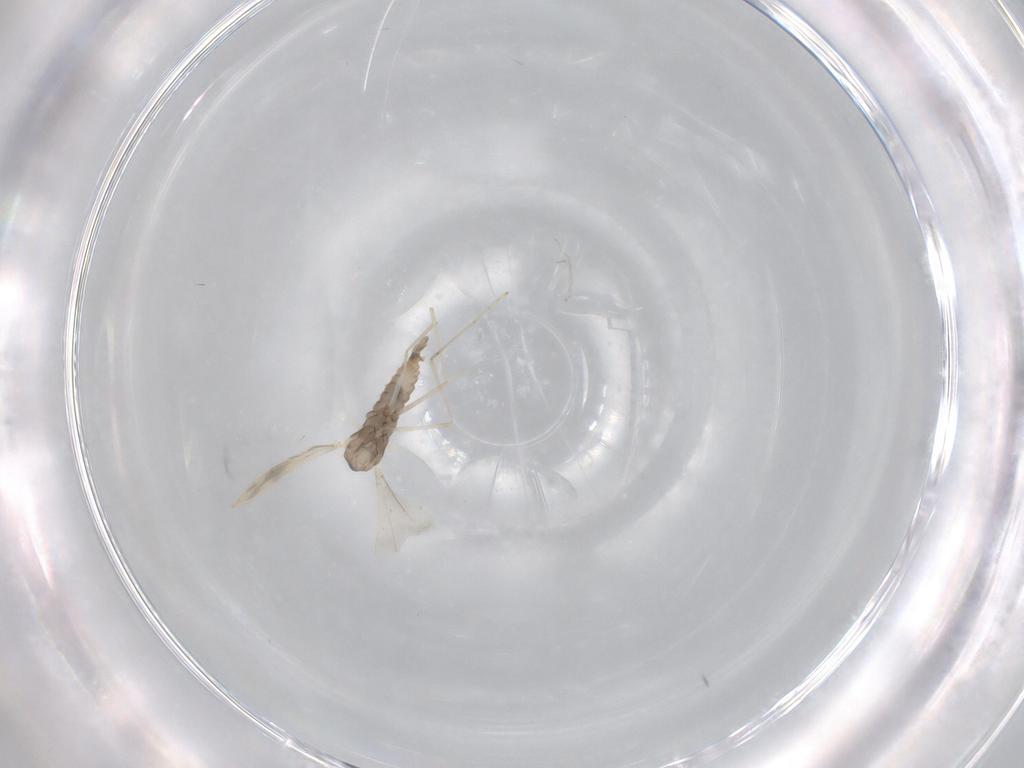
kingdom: Animalia
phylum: Arthropoda
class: Insecta
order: Diptera
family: Cecidomyiidae
